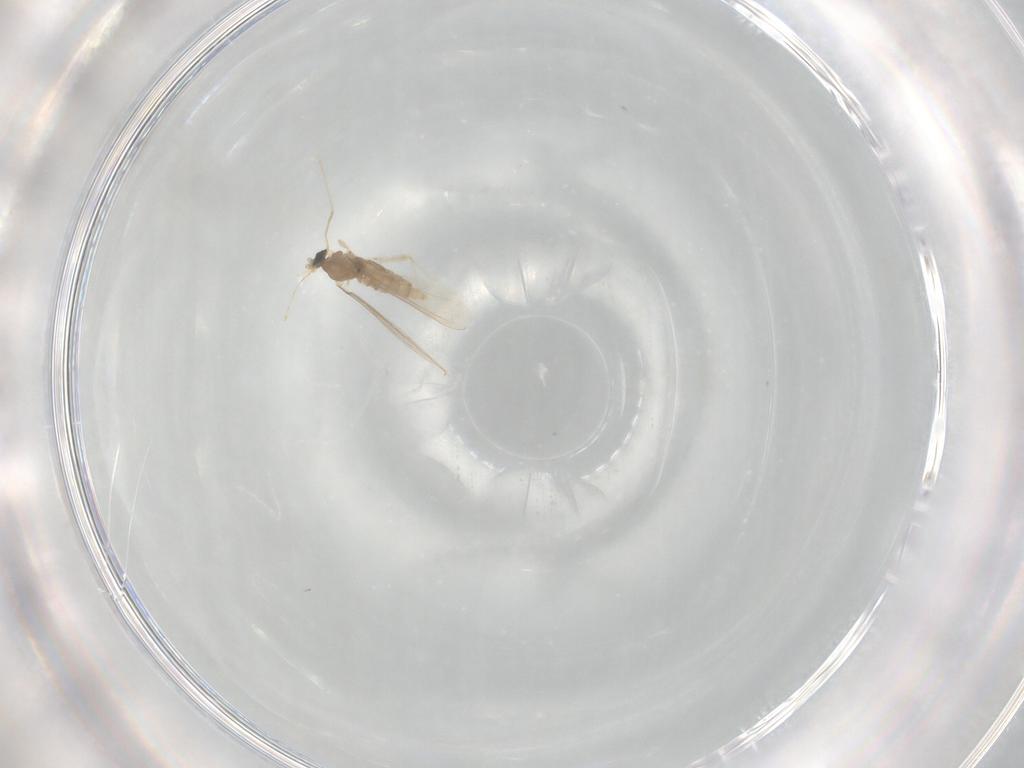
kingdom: Animalia
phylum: Arthropoda
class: Insecta
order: Diptera
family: Cecidomyiidae
